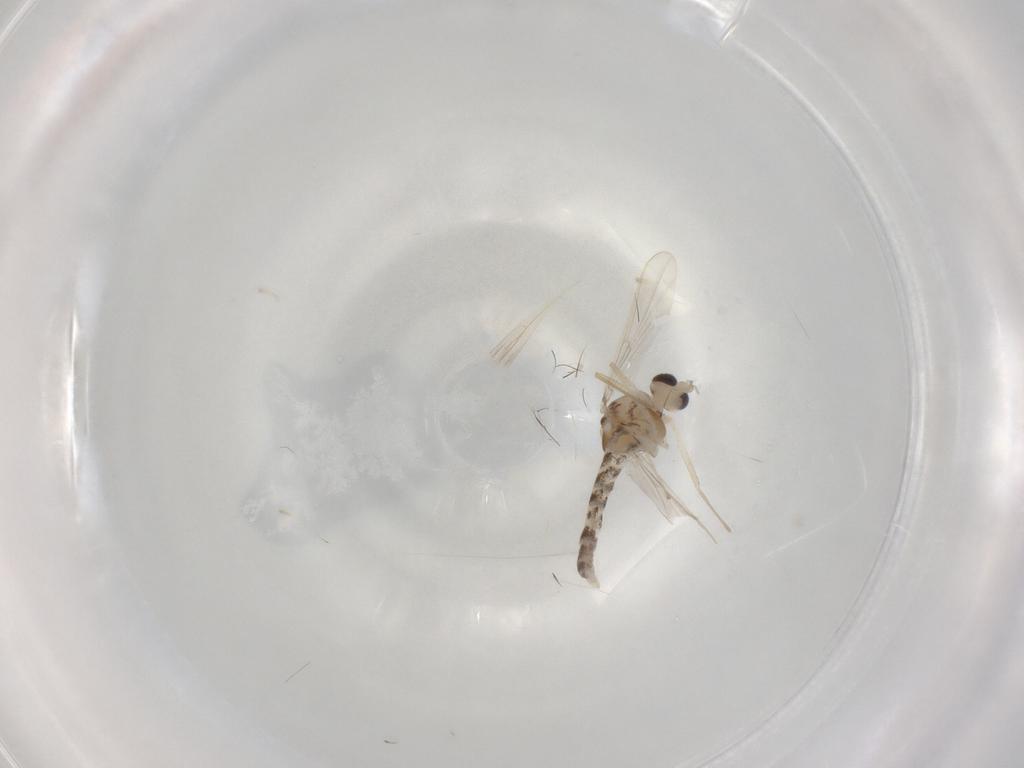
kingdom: Animalia
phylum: Arthropoda
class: Insecta
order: Diptera
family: Chironomidae
